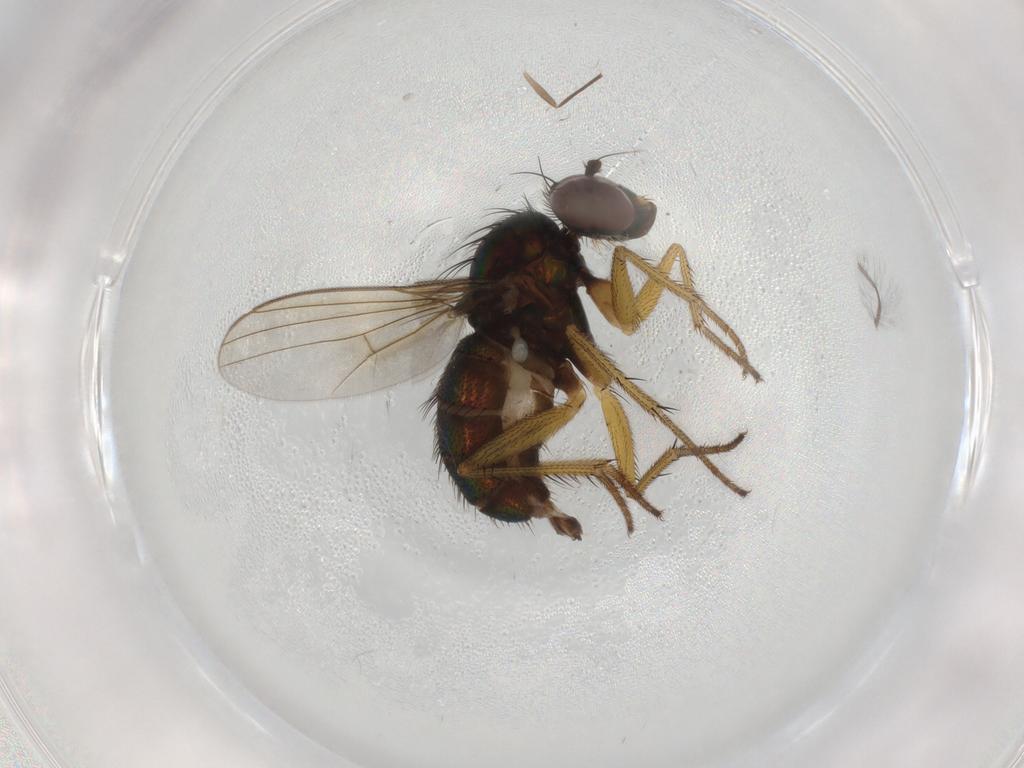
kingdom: Animalia
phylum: Arthropoda
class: Insecta
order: Diptera
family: Dolichopodidae
